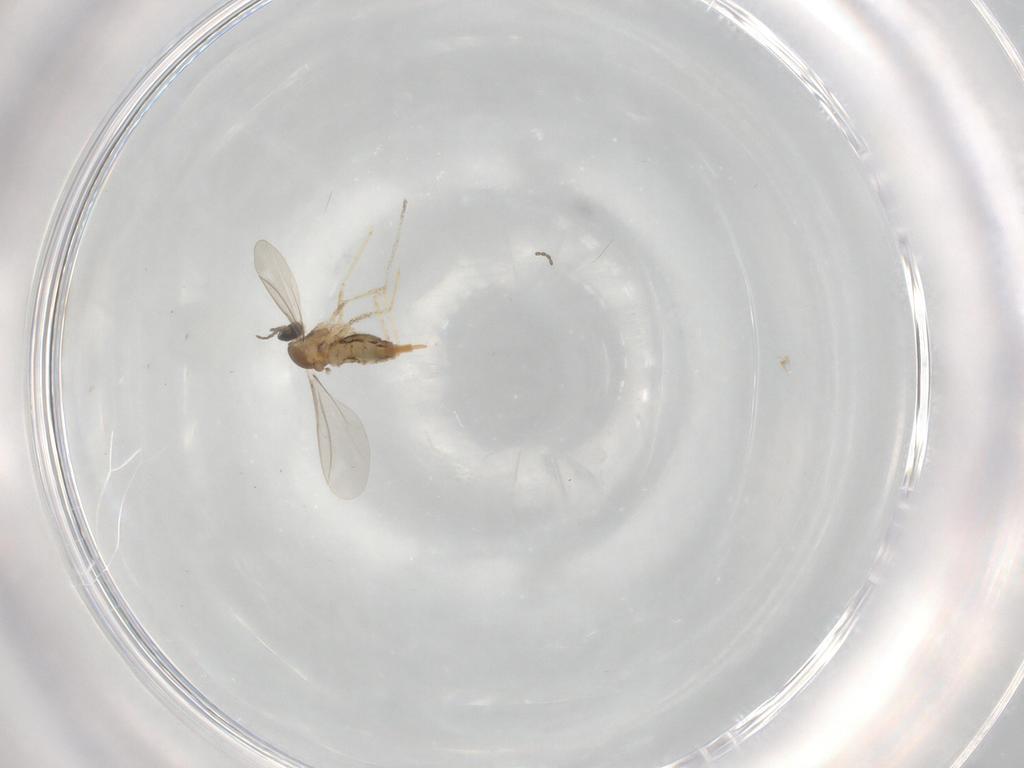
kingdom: Animalia
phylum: Arthropoda
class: Insecta
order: Diptera
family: Cecidomyiidae
